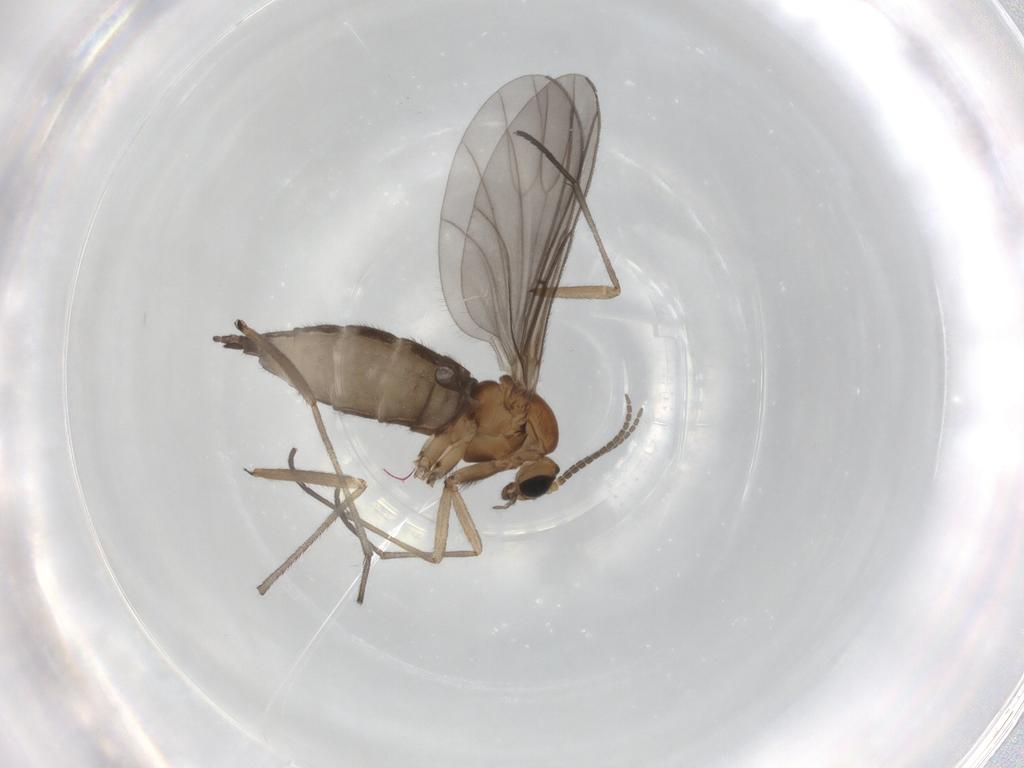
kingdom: Animalia
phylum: Arthropoda
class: Insecta
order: Diptera
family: Sciaridae
